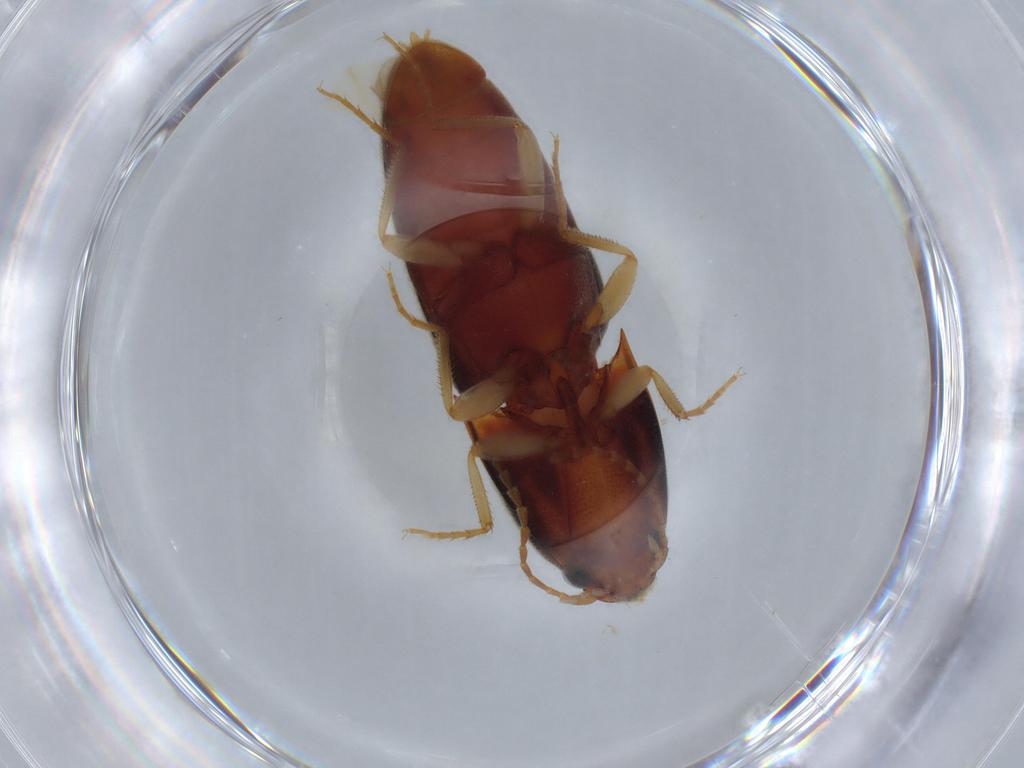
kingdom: Animalia
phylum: Arthropoda
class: Insecta
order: Coleoptera
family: Elateridae
